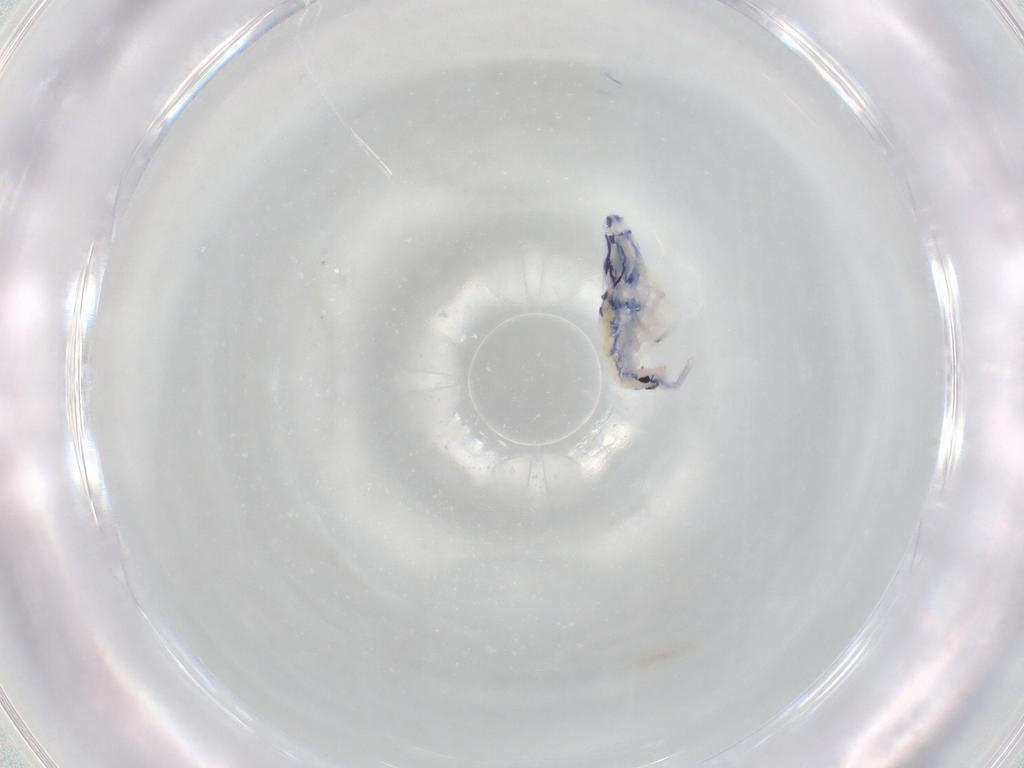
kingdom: Animalia
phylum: Arthropoda
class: Collembola
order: Entomobryomorpha
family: Entomobryidae
